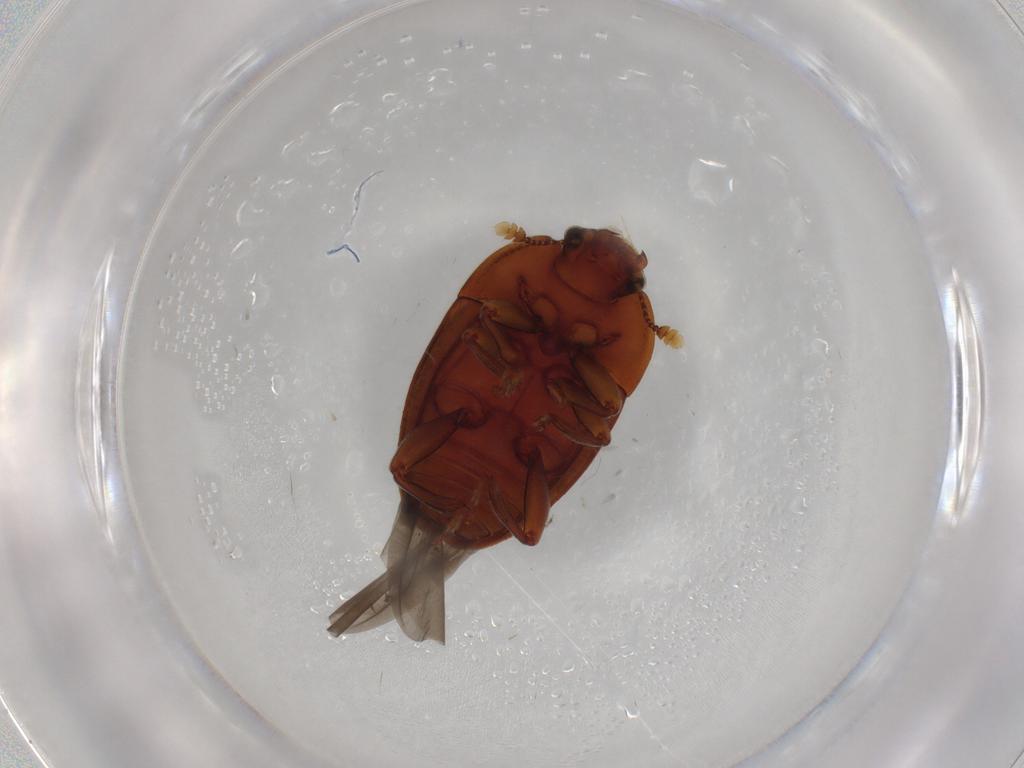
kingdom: Animalia
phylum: Arthropoda
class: Insecta
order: Coleoptera
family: Nitidulidae
